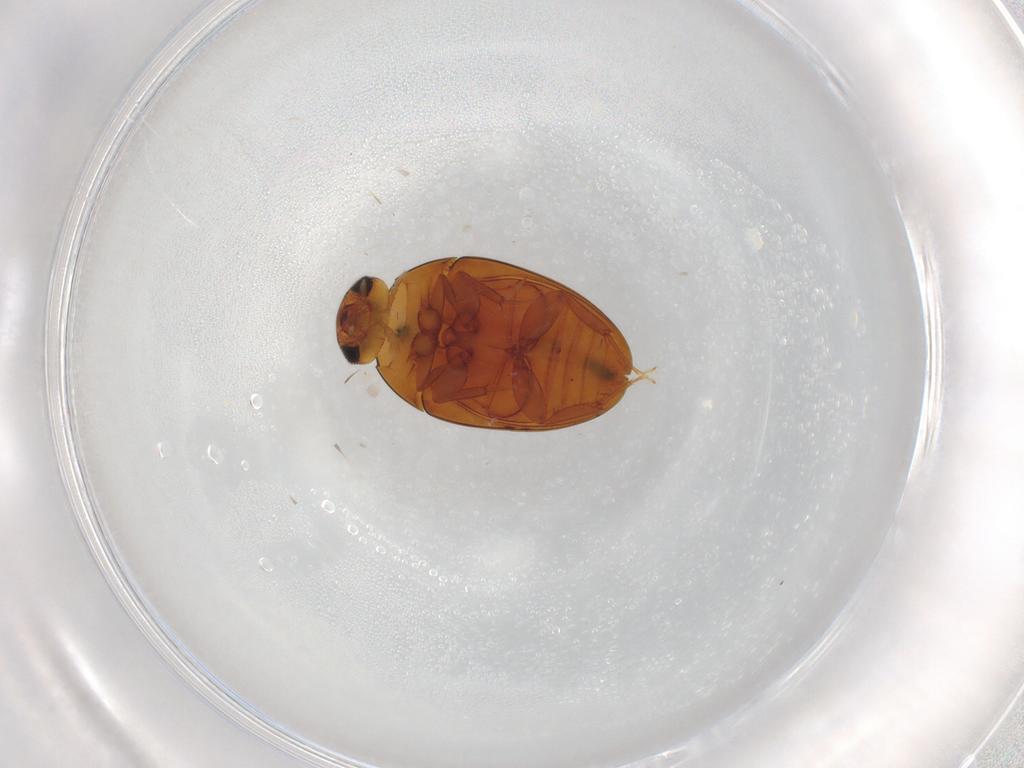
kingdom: Animalia
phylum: Arthropoda
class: Insecta
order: Coleoptera
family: Phalacridae
